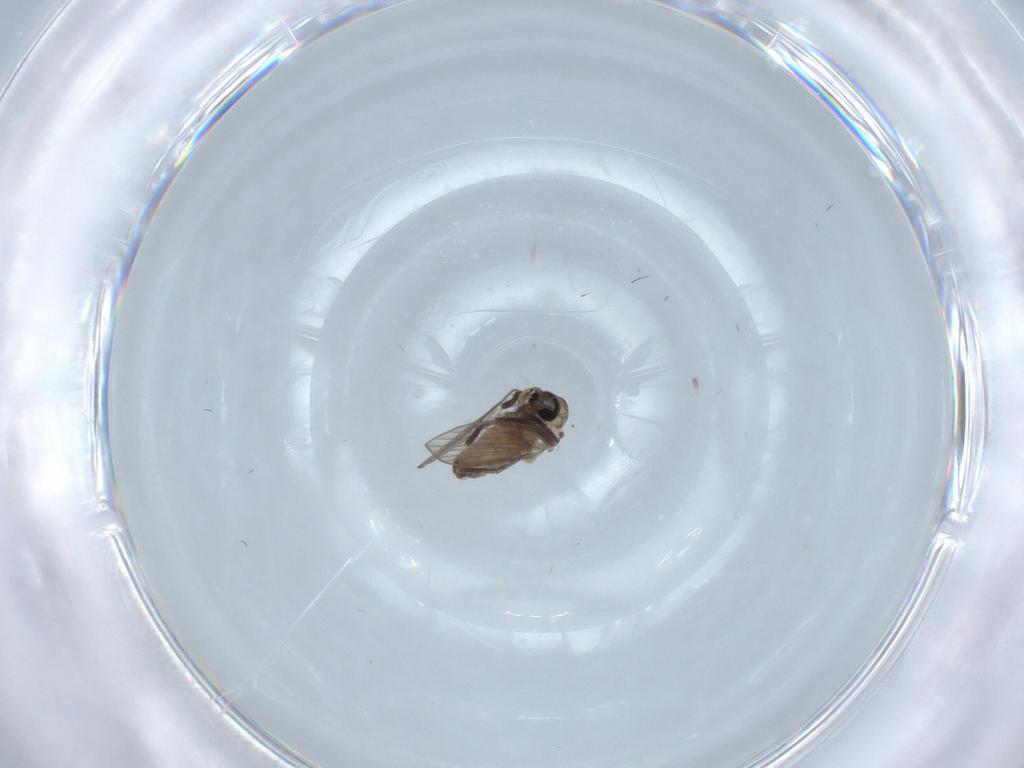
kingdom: Animalia
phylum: Arthropoda
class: Insecta
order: Diptera
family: Psychodidae
